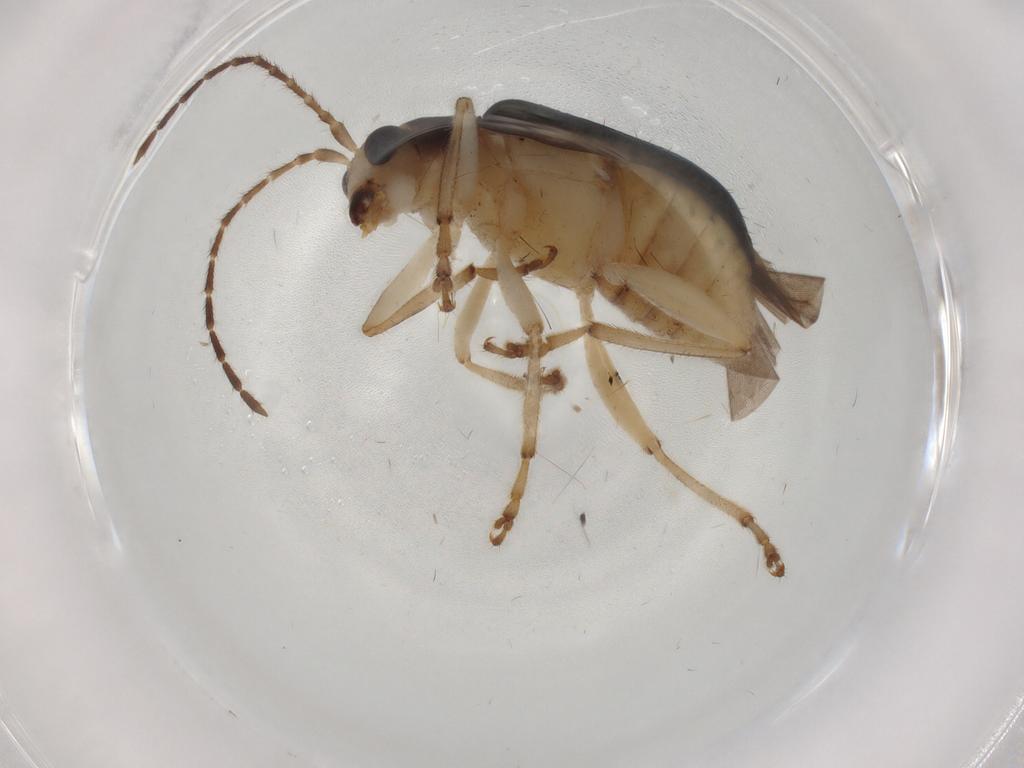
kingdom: Animalia
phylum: Arthropoda
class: Insecta
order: Coleoptera
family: Chrysomelidae
